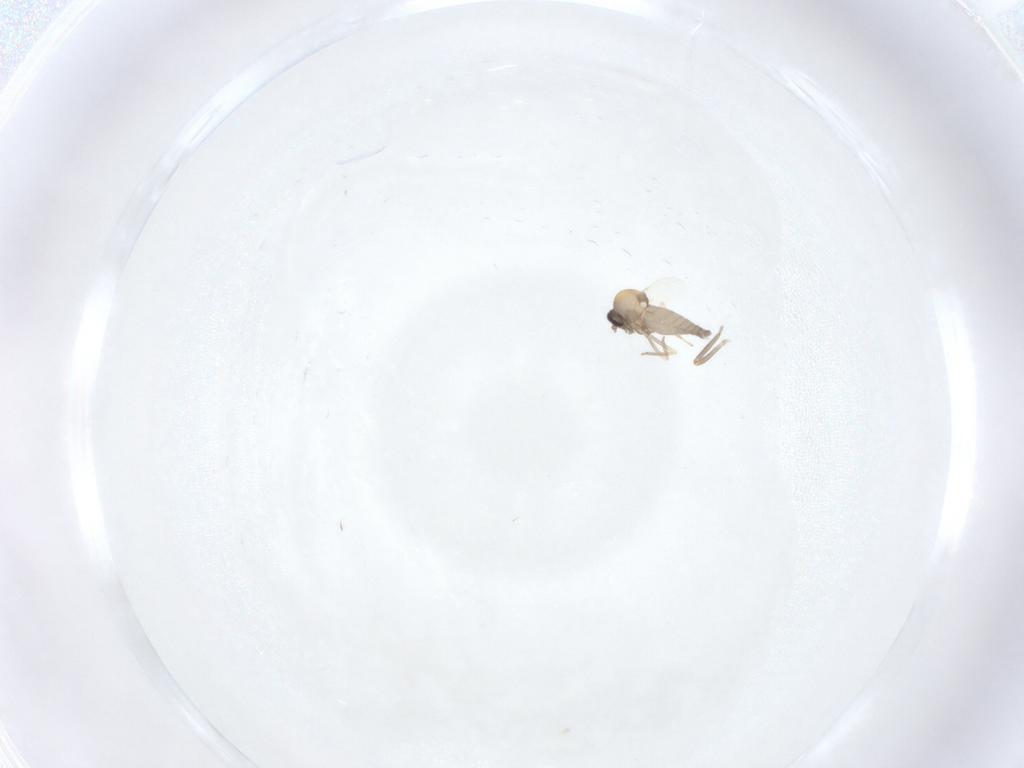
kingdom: Animalia
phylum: Arthropoda
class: Insecta
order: Diptera
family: Ceratopogonidae
